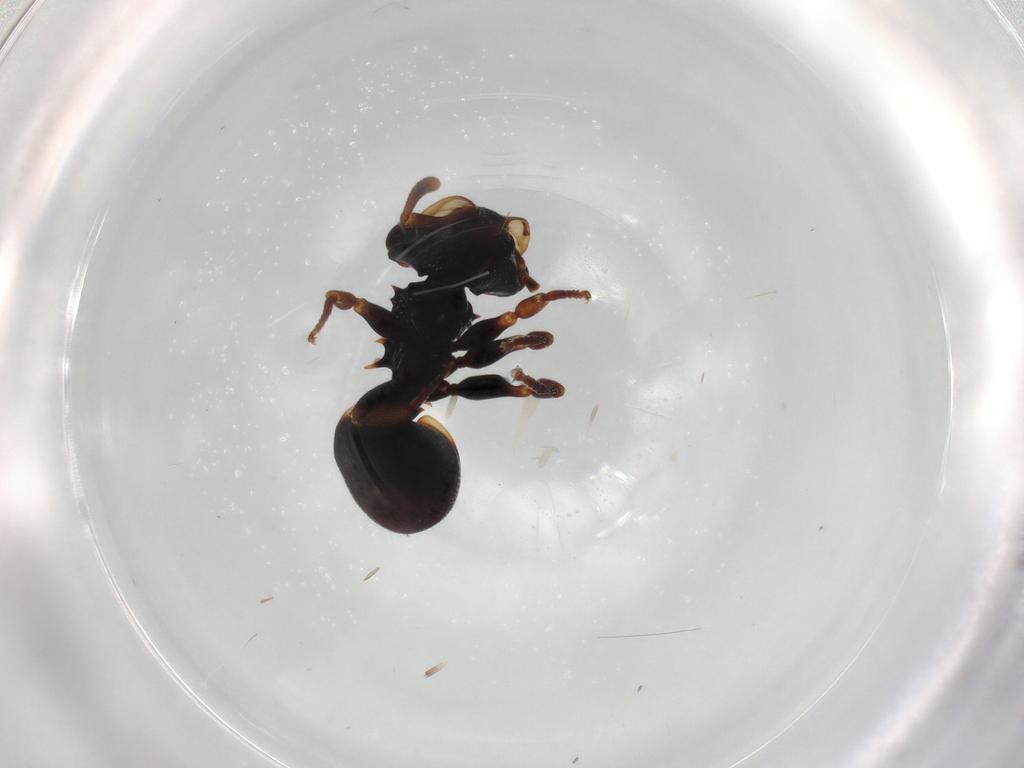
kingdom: Animalia
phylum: Arthropoda
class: Insecta
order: Hymenoptera
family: Formicidae
